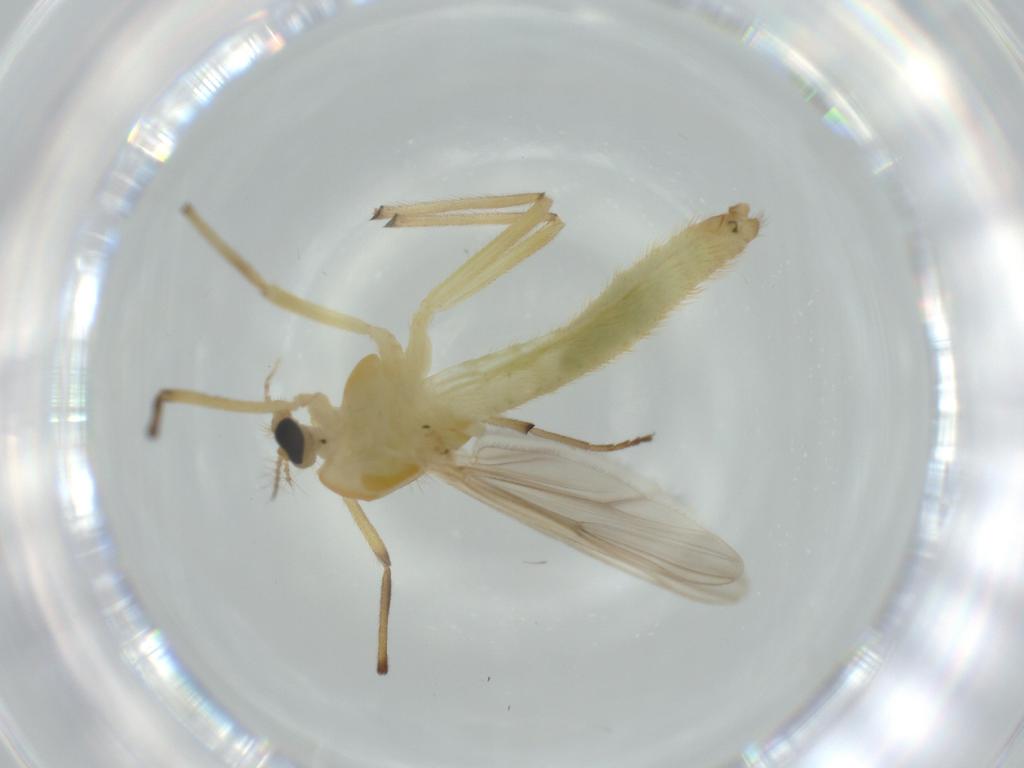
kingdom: Animalia
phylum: Arthropoda
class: Insecta
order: Diptera
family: Chironomidae
